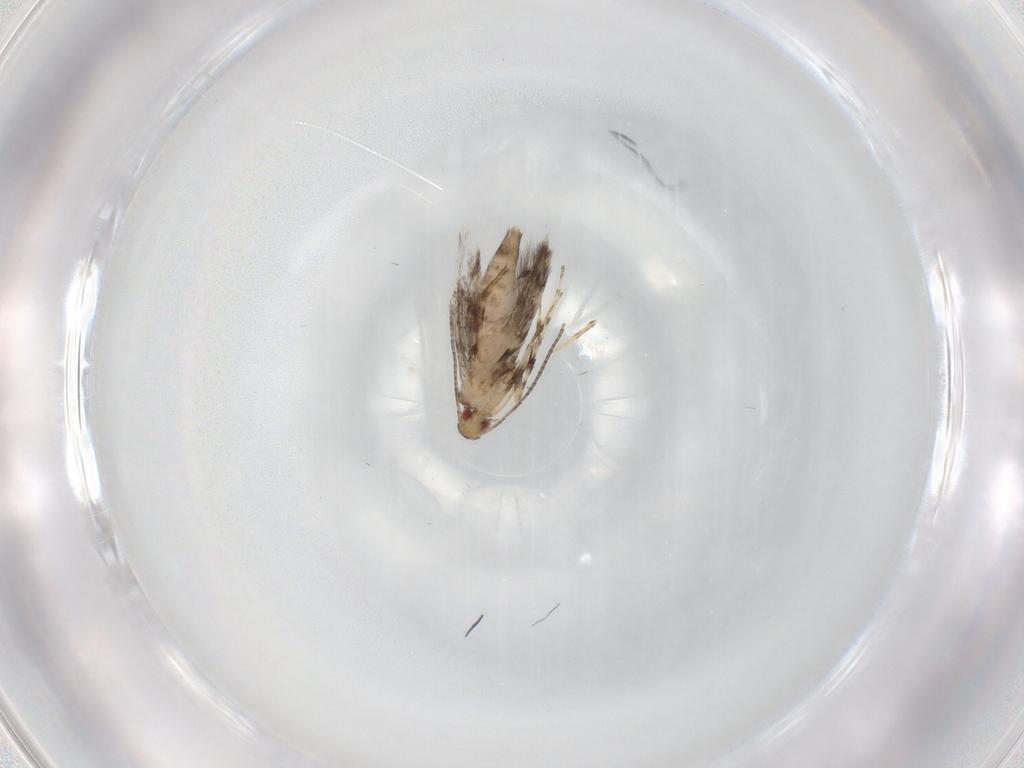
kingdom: Animalia
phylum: Arthropoda
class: Insecta
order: Lepidoptera
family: Gracillariidae
